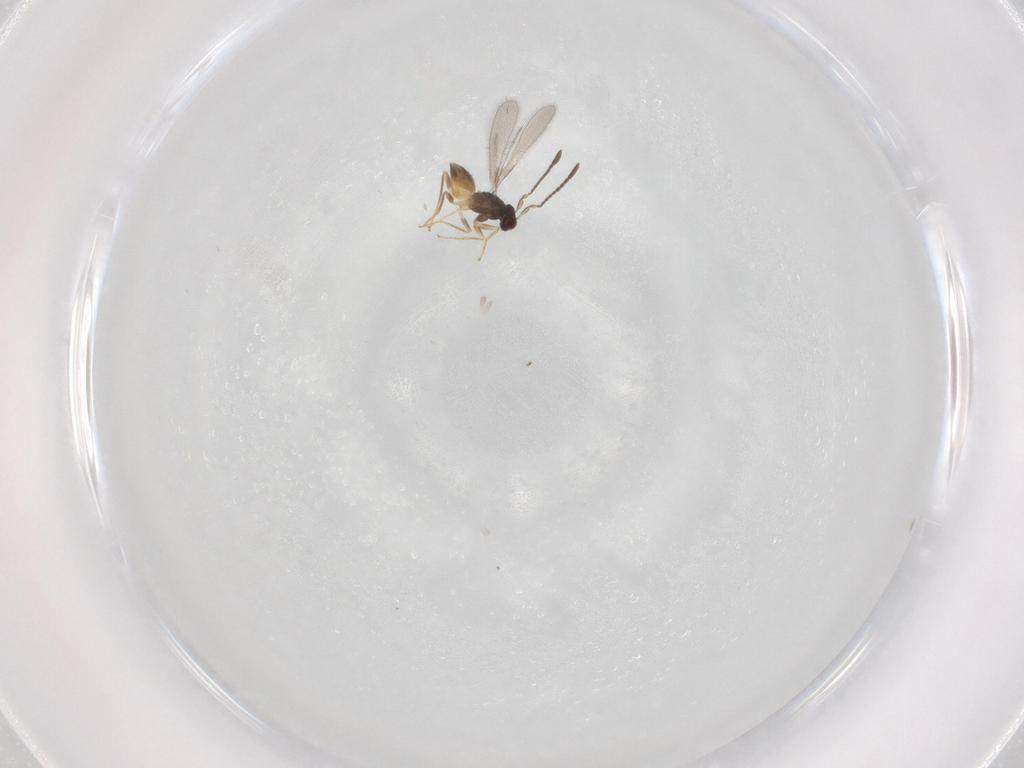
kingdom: Animalia
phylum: Arthropoda
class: Insecta
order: Hymenoptera
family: Mymaridae
